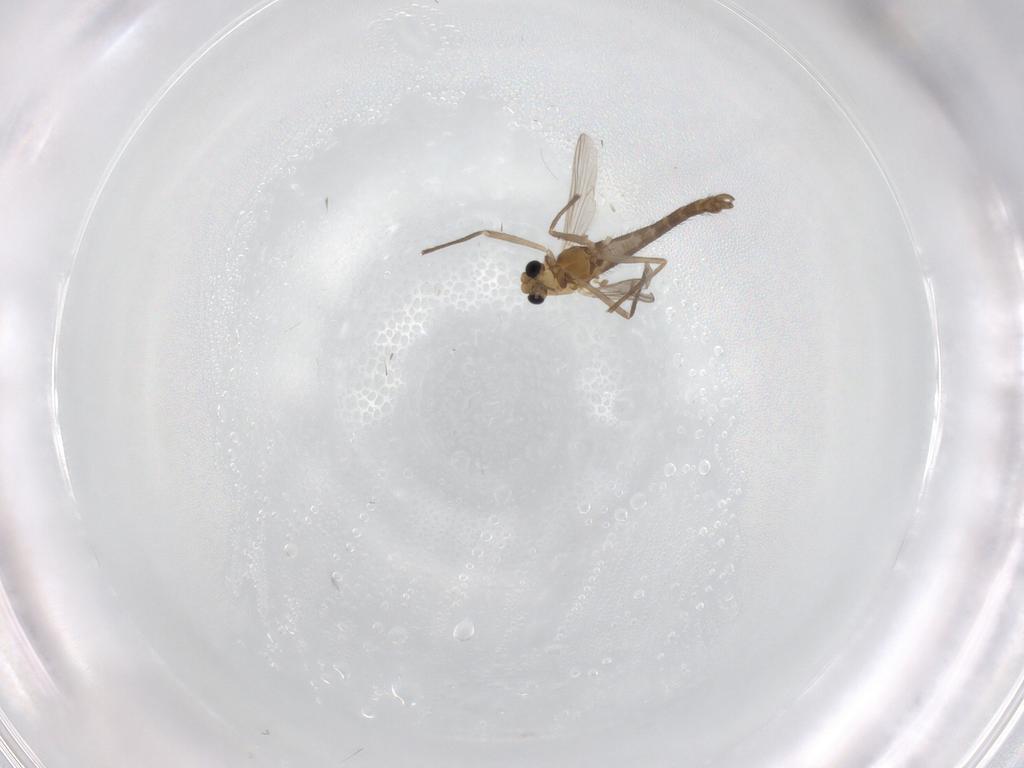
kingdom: Animalia
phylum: Arthropoda
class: Insecta
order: Diptera
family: Chironomidae
